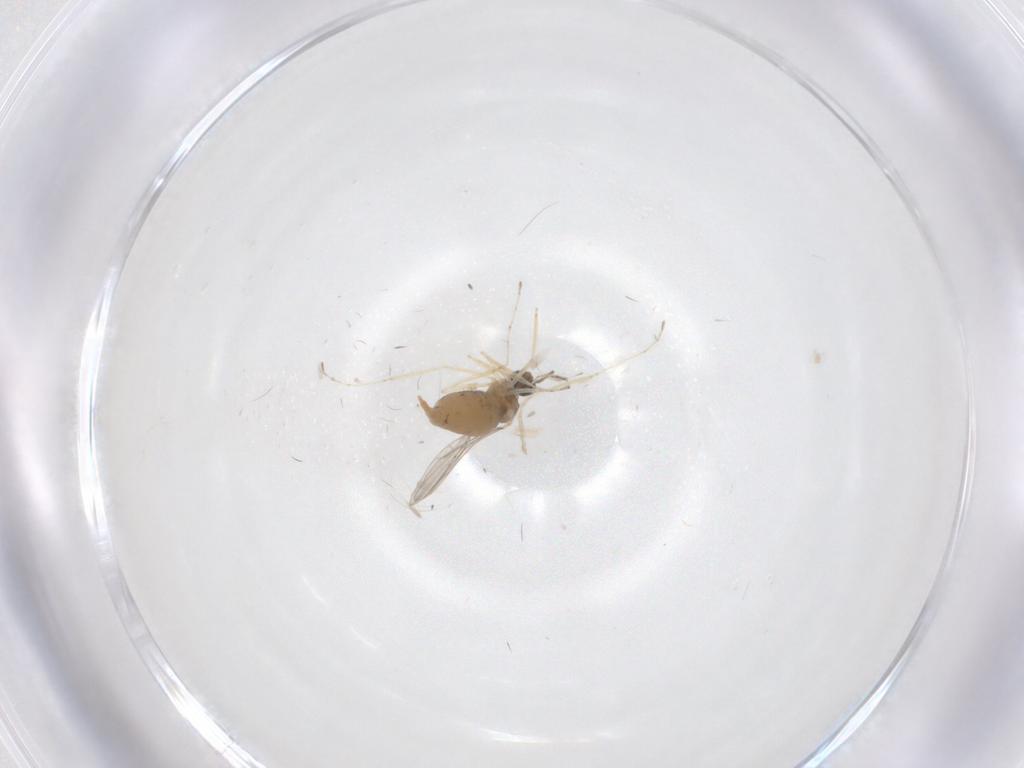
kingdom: Animalia
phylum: Arthropoda
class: Insecta
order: Diptera
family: Cecidomyiidae
